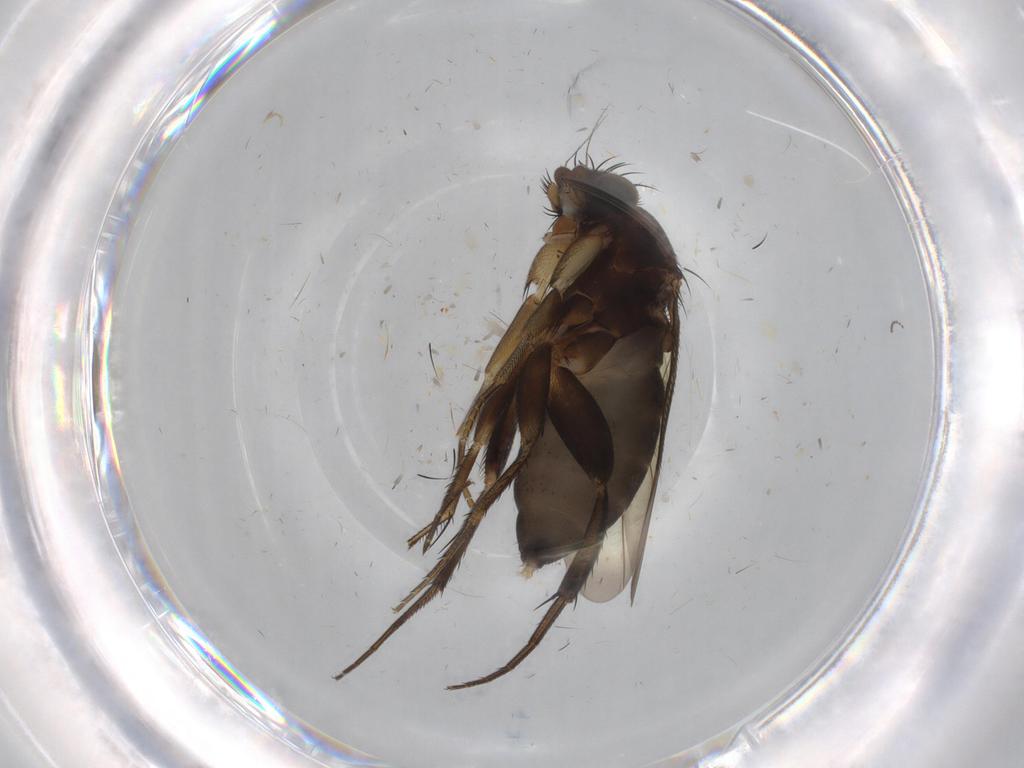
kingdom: Animalia
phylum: Arthropoda
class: Insecta
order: Diptera
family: Phoridae
